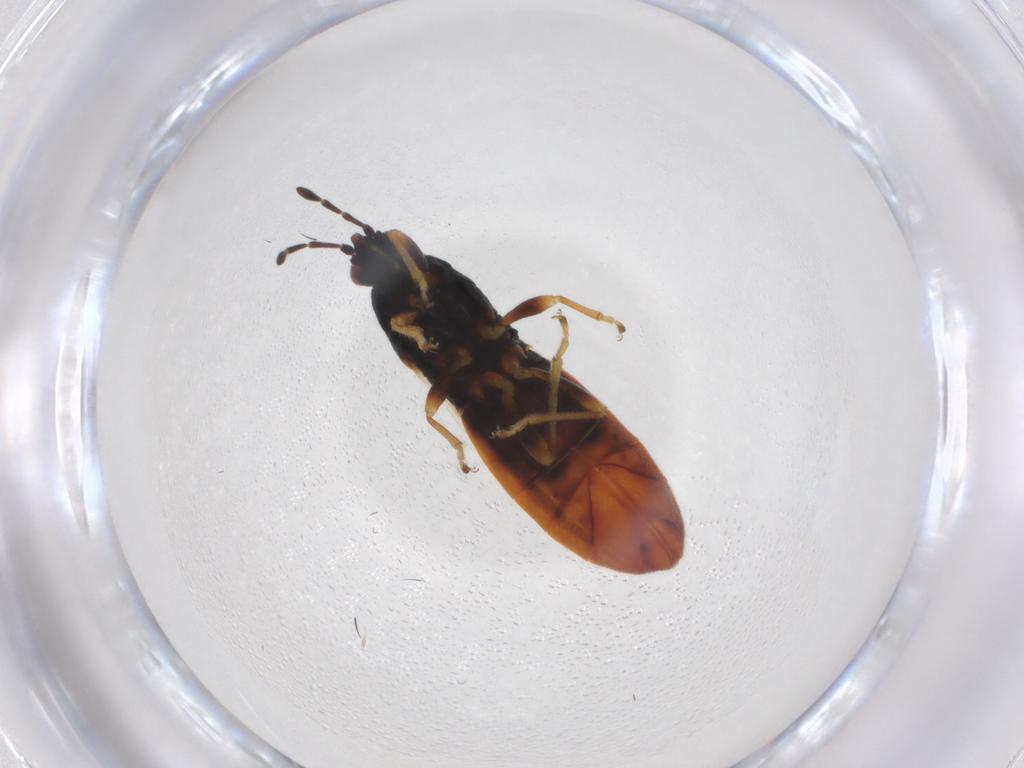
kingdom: Animalia
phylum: Arthropoda
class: Insecta
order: Hemiptera
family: Blissidae
